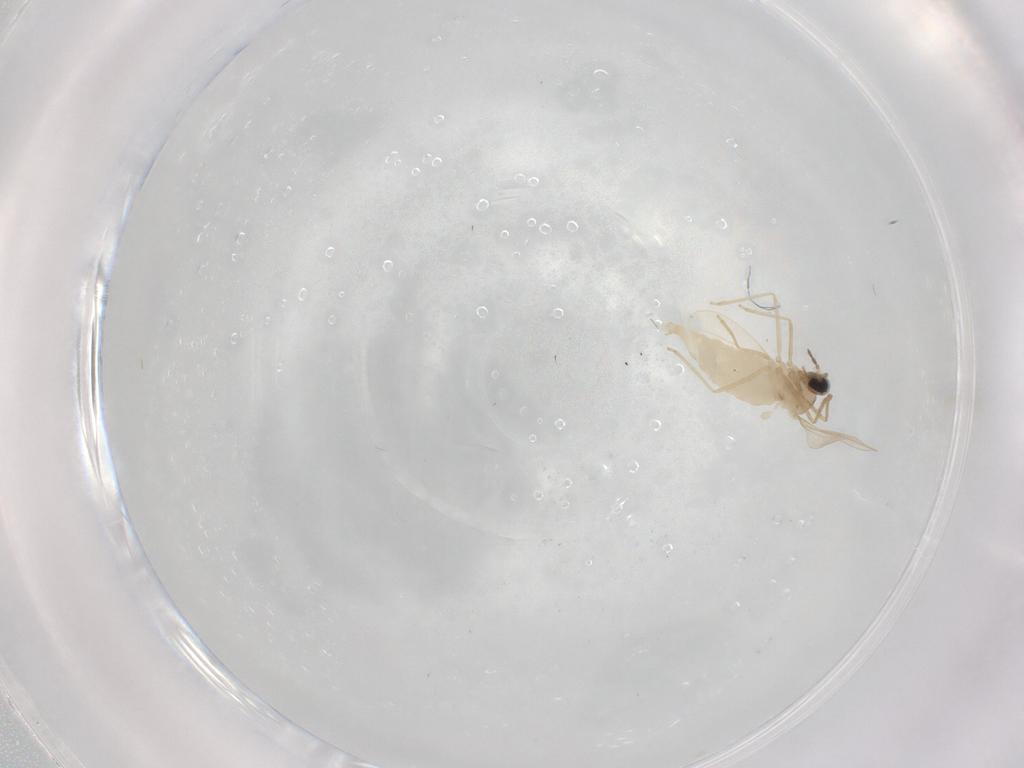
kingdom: Animalia
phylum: Arthropoda
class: Insecta
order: Diptera
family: Cecidomyiidae
